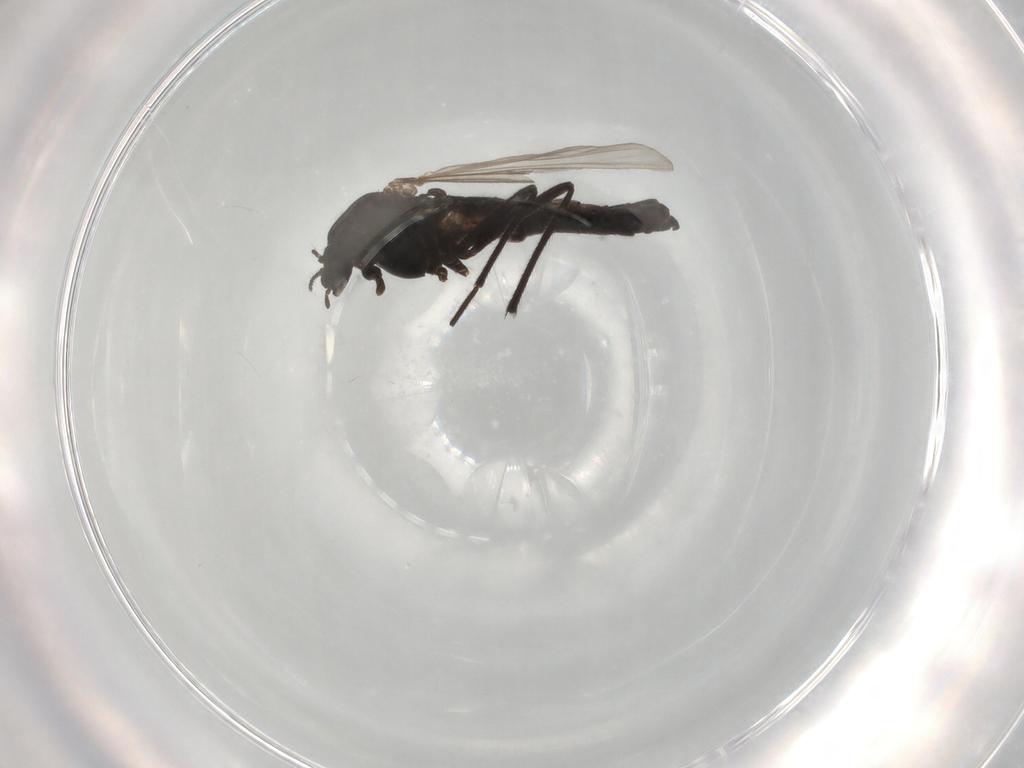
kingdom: Animalia
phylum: Arthropoda
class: Insecta
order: Diptera
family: Chironomidae
